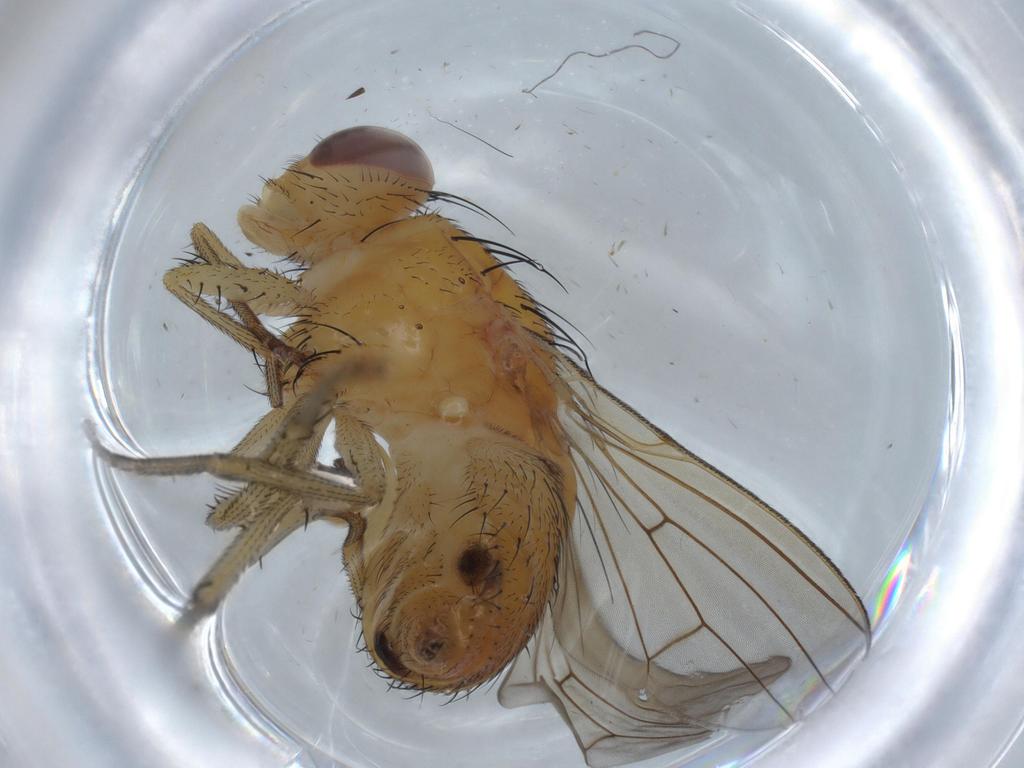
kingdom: Animalia
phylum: Arthropoda
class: Insecta
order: Diptera
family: Cecidomyiidae
